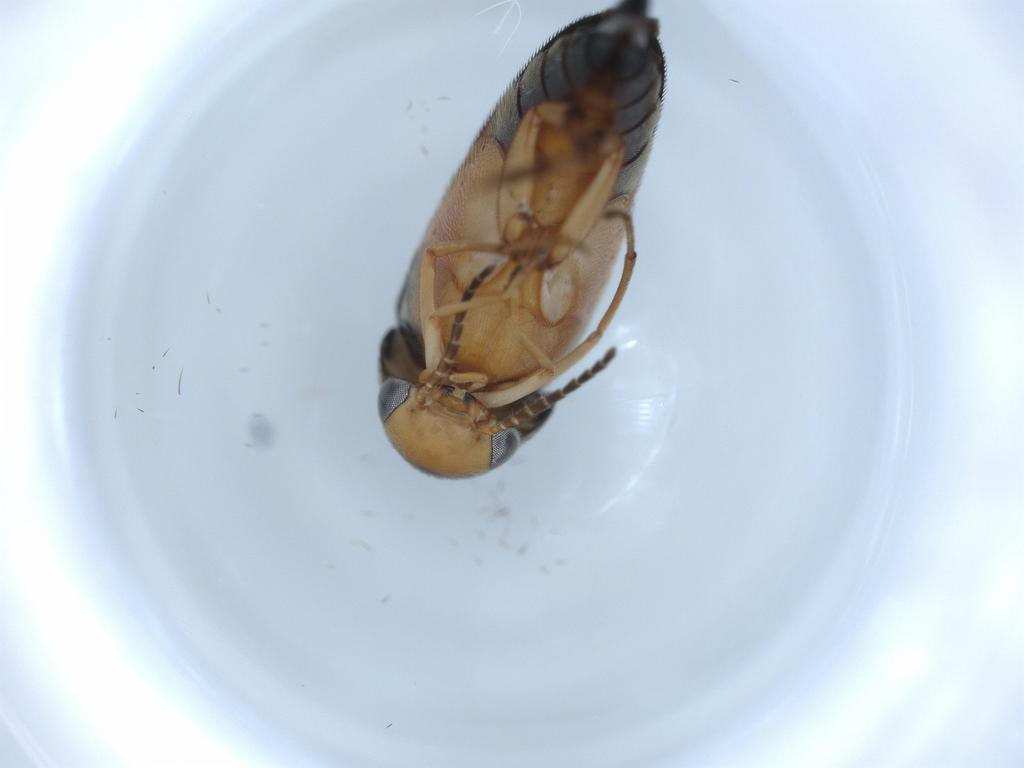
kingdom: Animalia
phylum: Arthropoda
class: Insecta
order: Coleoptera
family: Mordellidae
